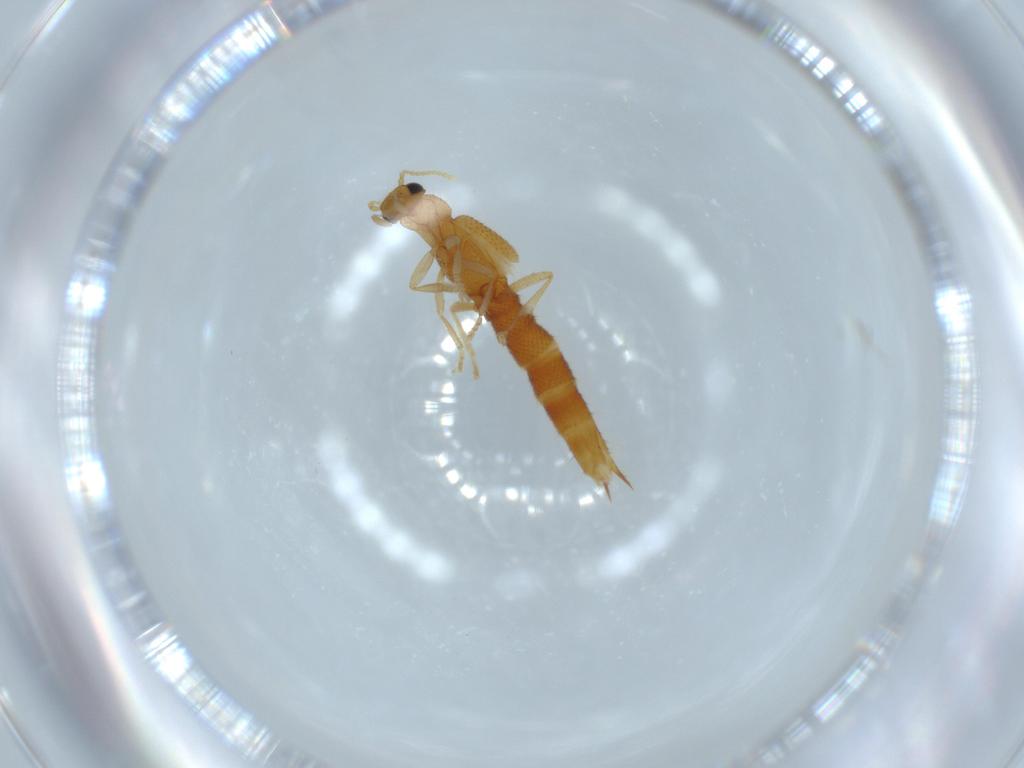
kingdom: Animalia
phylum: Arthropoda
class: Insecta
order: Coleoptera
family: Staphylinidae
